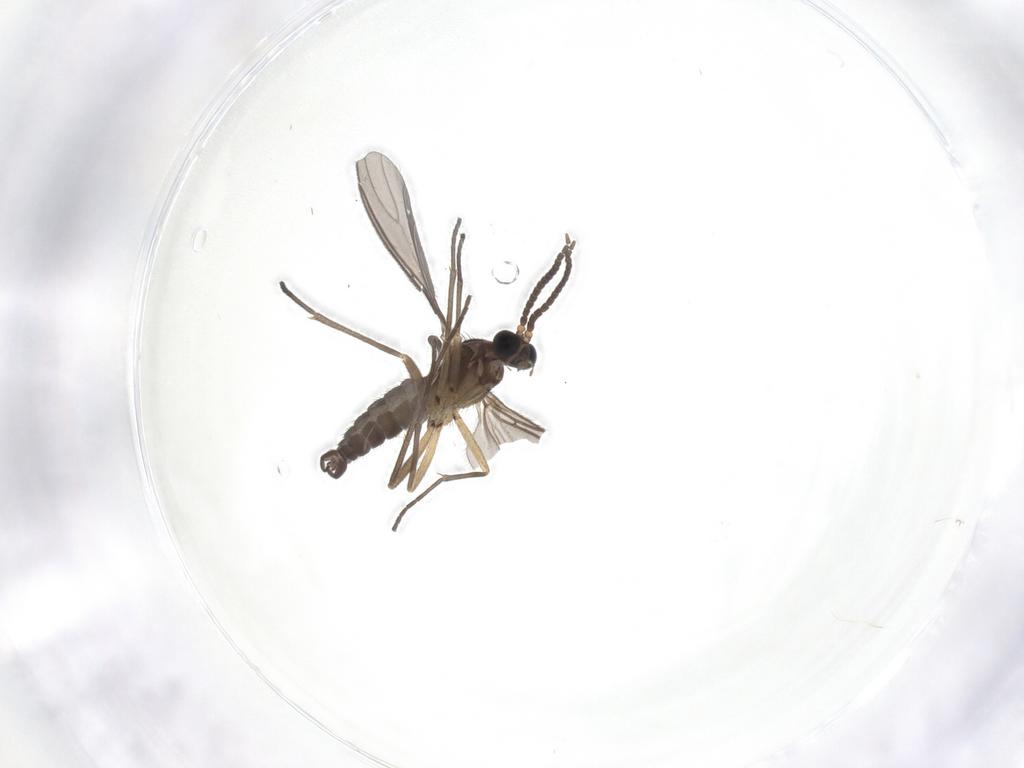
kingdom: Animalia
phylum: Arthropoda
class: Insecta
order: Diptera
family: Sciaridae
